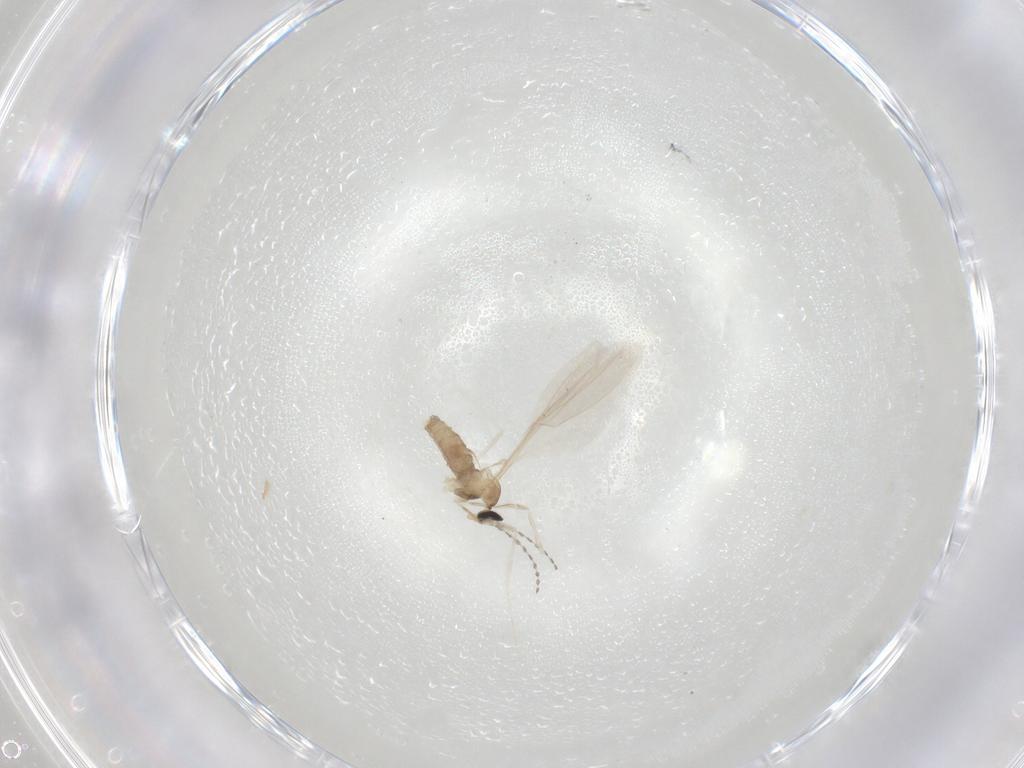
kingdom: Animalia
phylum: Arthropoda
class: Insecta
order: Diptera
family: Cecidomyiidae
